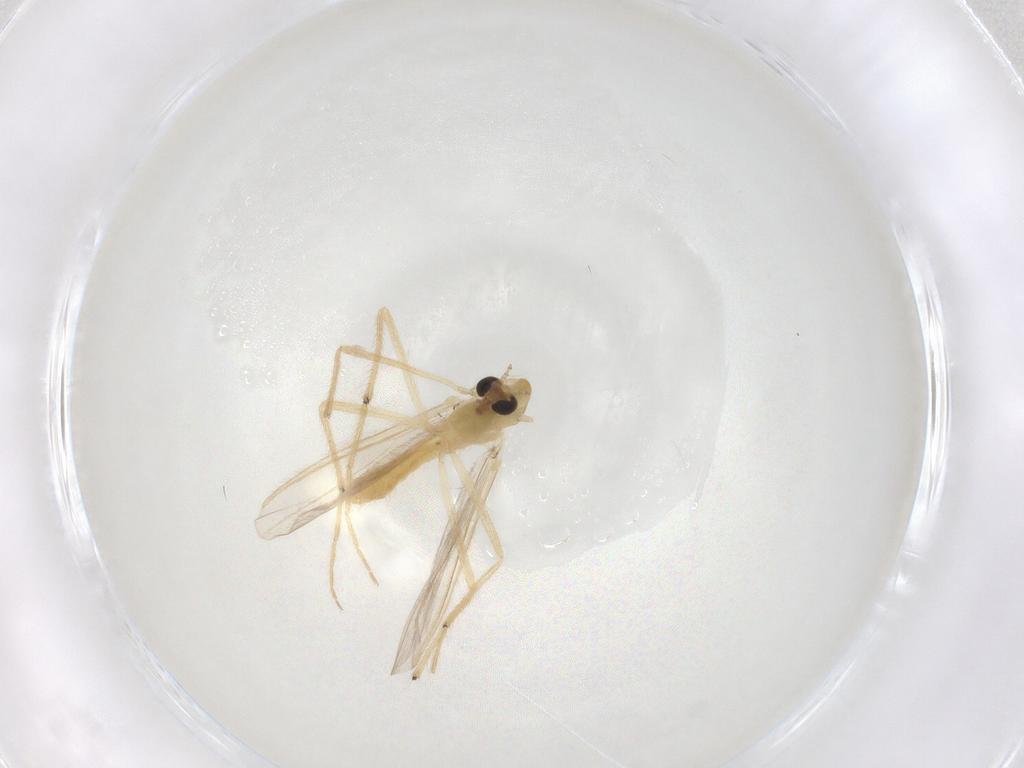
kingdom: Animalia
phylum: Arthropoda
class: Insecta
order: Diptera
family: Chironomidae
